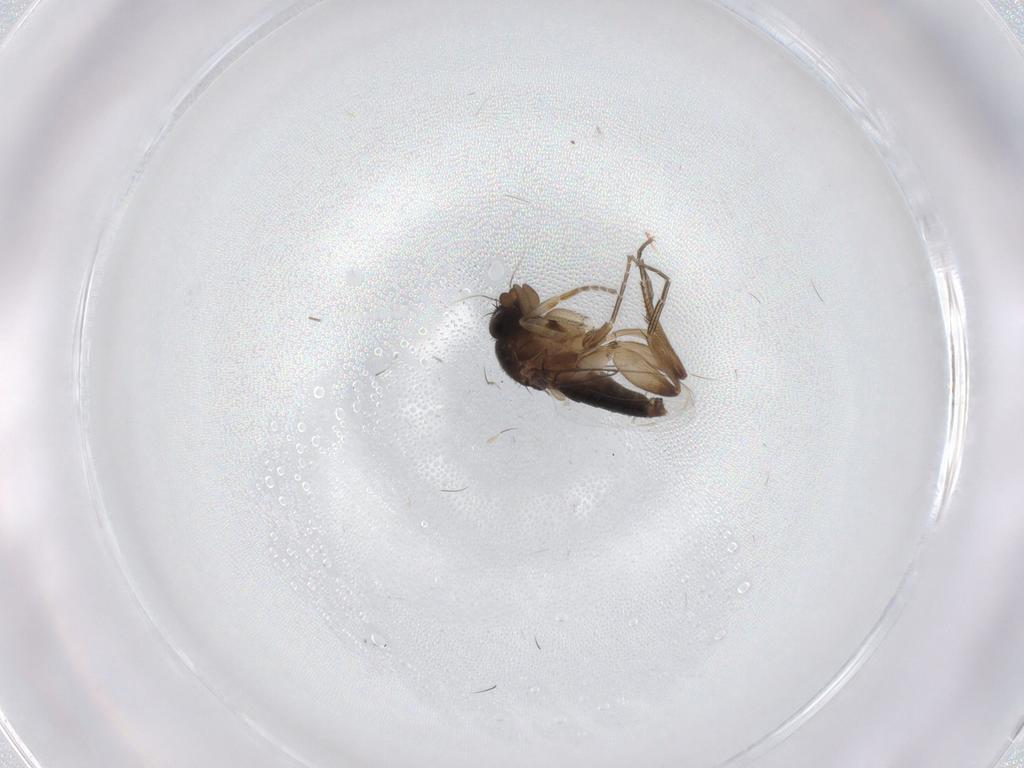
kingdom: Animalia
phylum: Arthropoda
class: Insecta
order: Diptera
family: Phoridae
